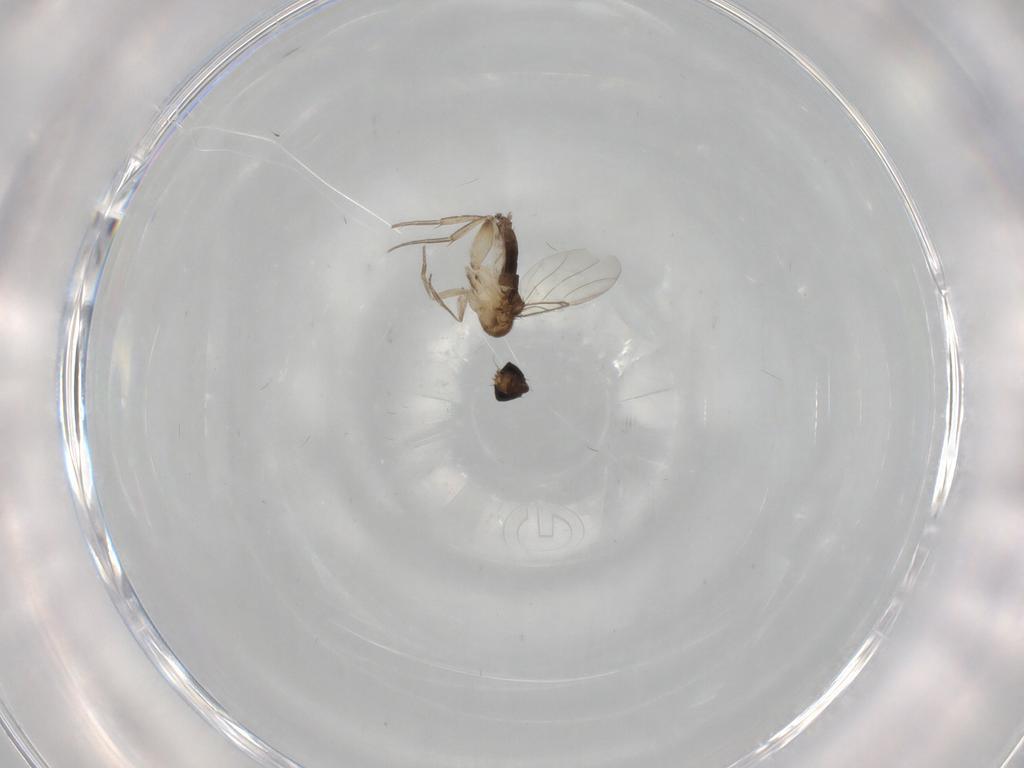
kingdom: Animalia
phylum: Arthropoda
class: Insecta
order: Diptera
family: Phoridae
